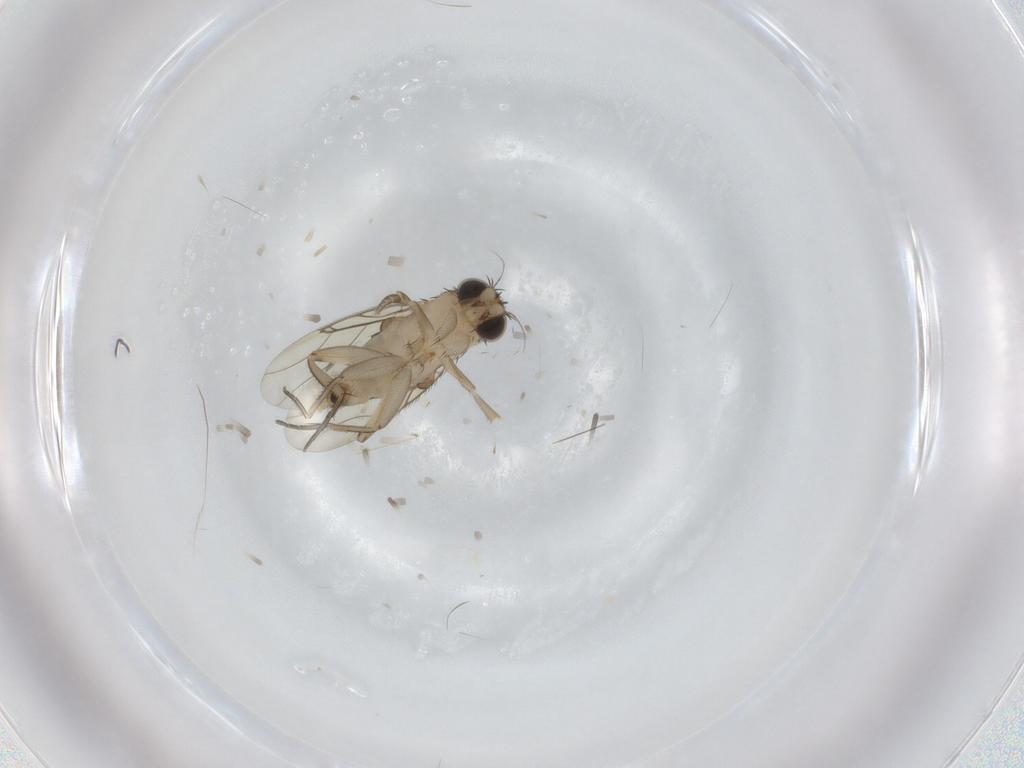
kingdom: Animalia
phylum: Arthropoda
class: Insecta
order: Diptera
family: Phoridae
